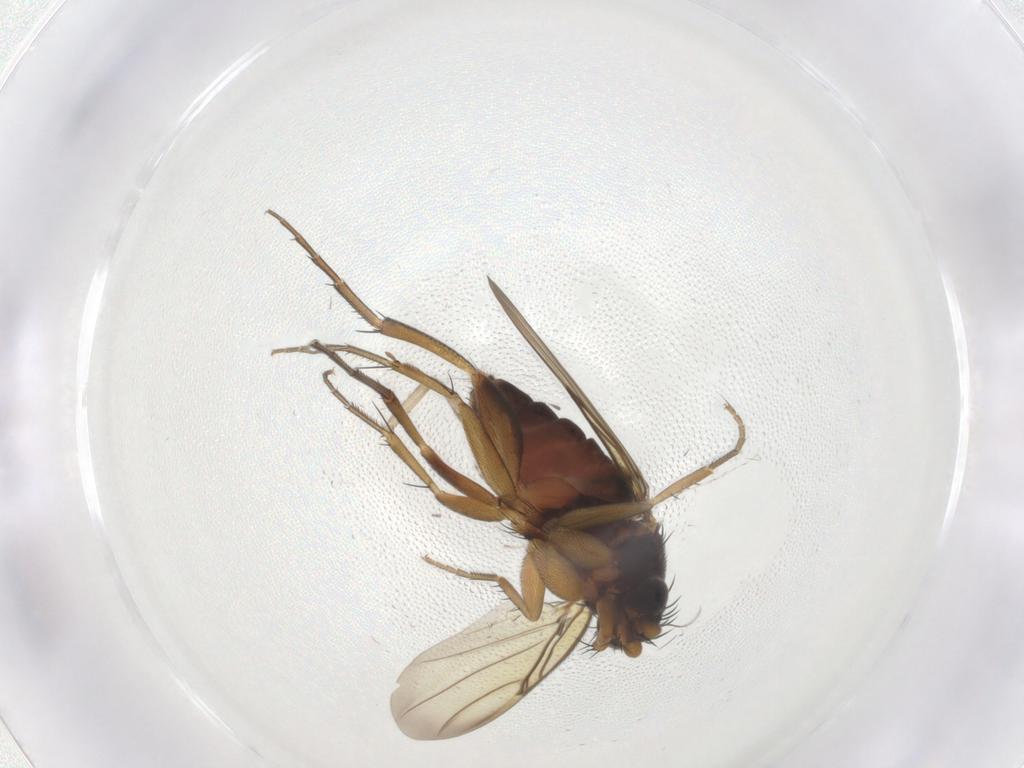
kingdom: Animalia
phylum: Arthropoda
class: Insecta
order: Diptera
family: Phoridae
